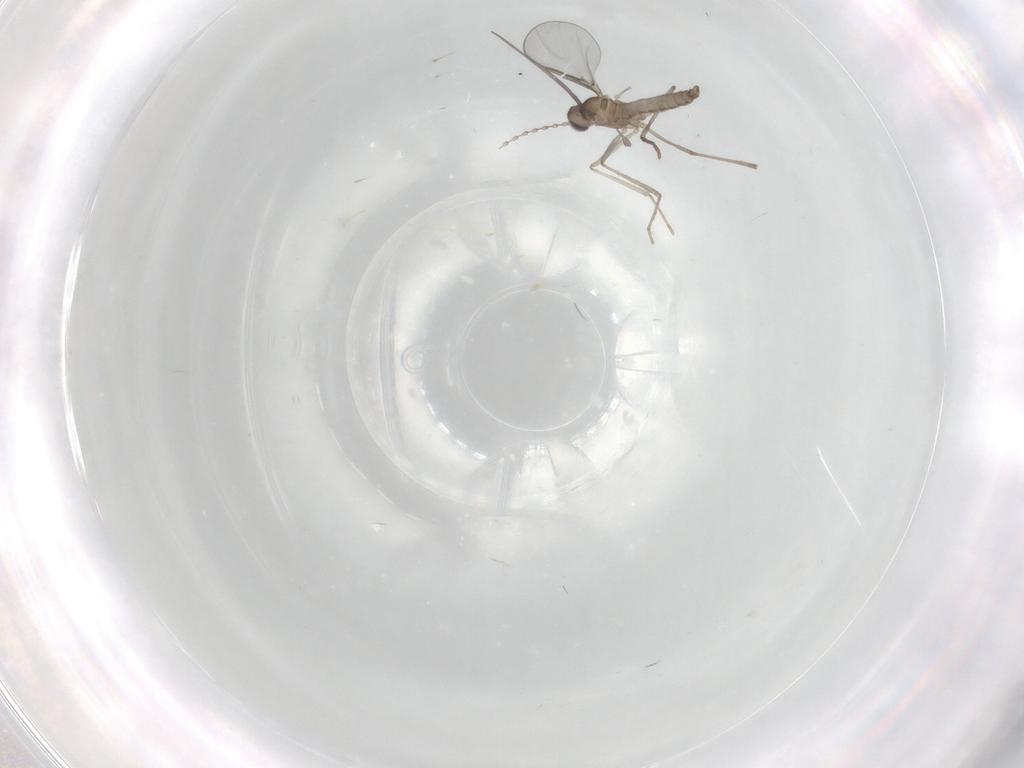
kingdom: Animalia
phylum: Arthropoda
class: Insecta
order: Diptera
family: Cecidomyiidae
